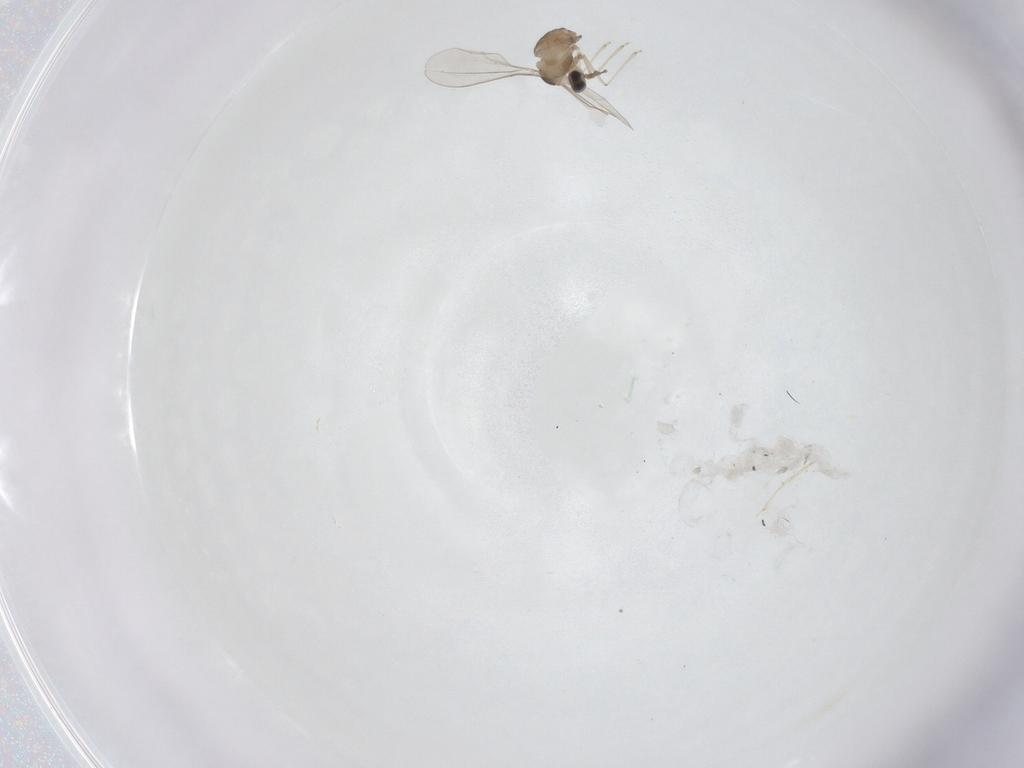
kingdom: Animalia
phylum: Arthropoda
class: Insecta
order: Diptera
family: Cecidomyiidae
